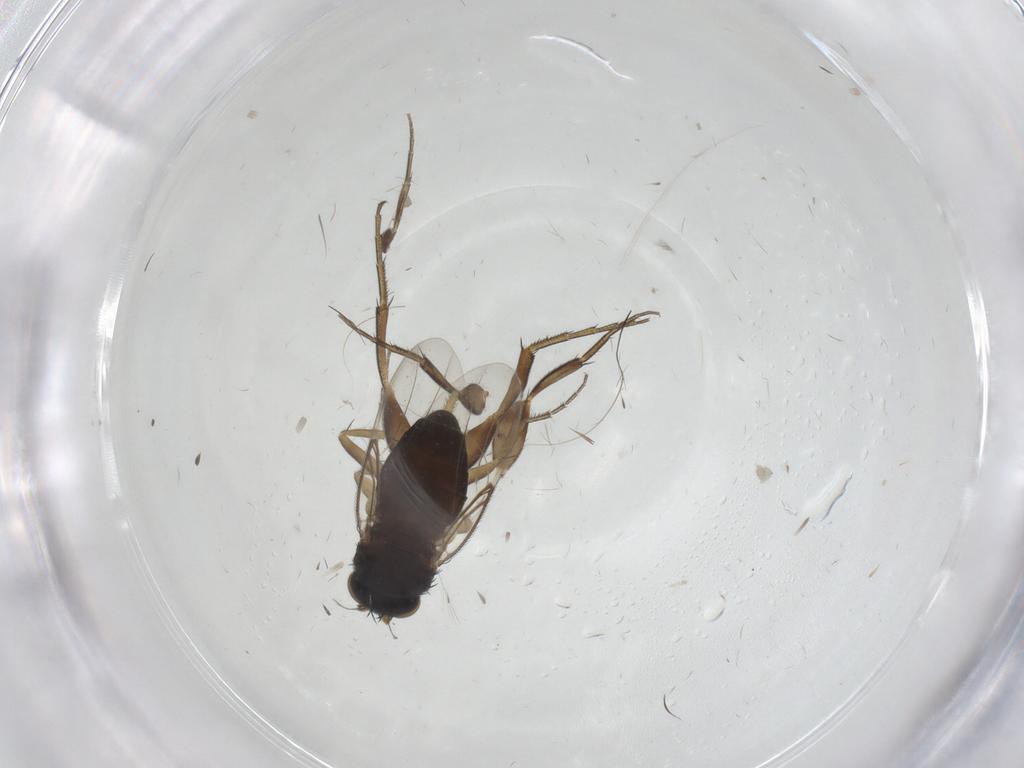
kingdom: Animalia
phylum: Arthropoda
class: Insecta
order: Diptera
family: Phoridae
